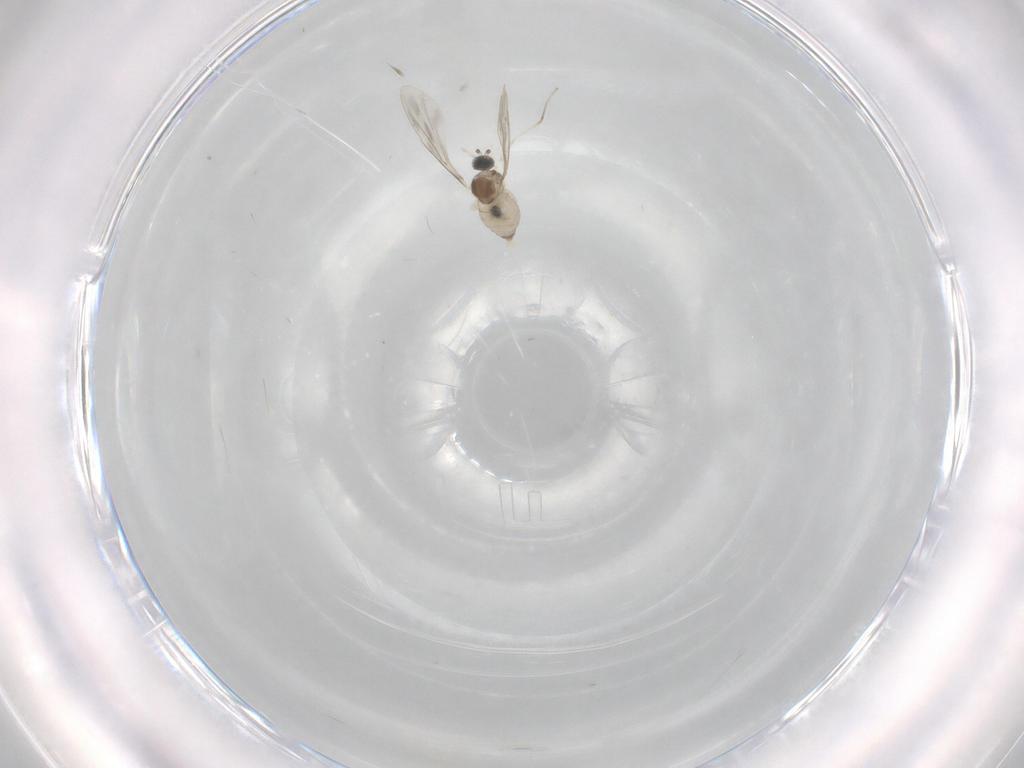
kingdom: Animalia
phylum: Arthropoda
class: Insecta
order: Diptera
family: Cecidomyiidae
